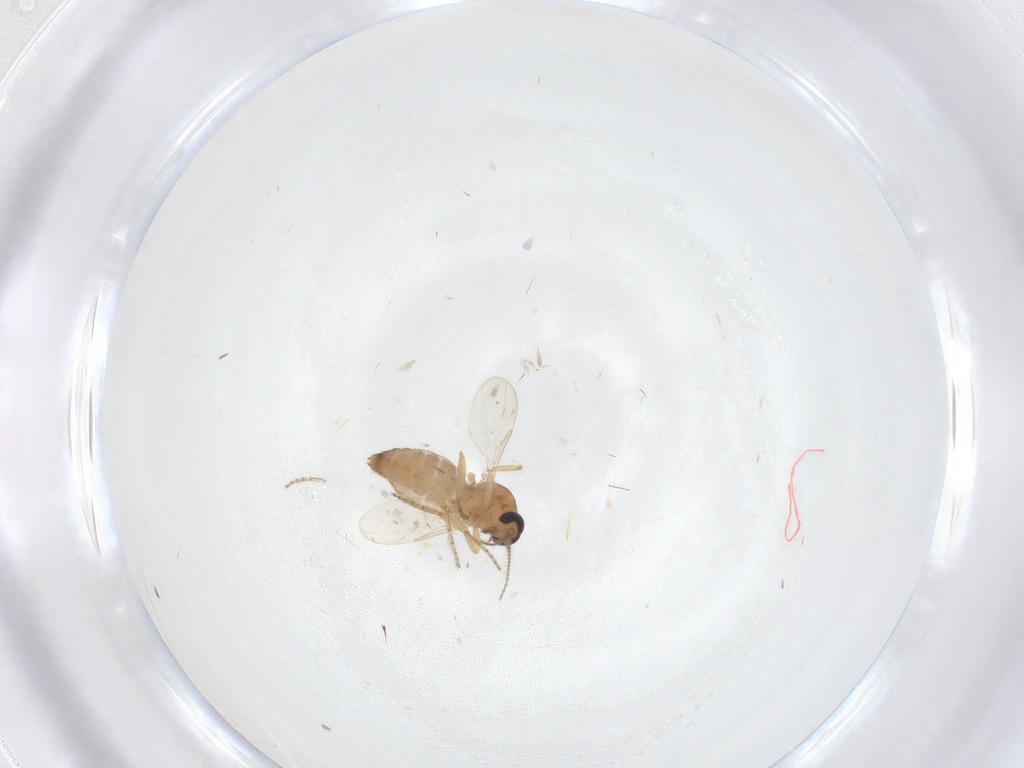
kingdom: Animalia
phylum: Arthropoda
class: Insecta
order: Diptera
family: Ceratopogonidae
